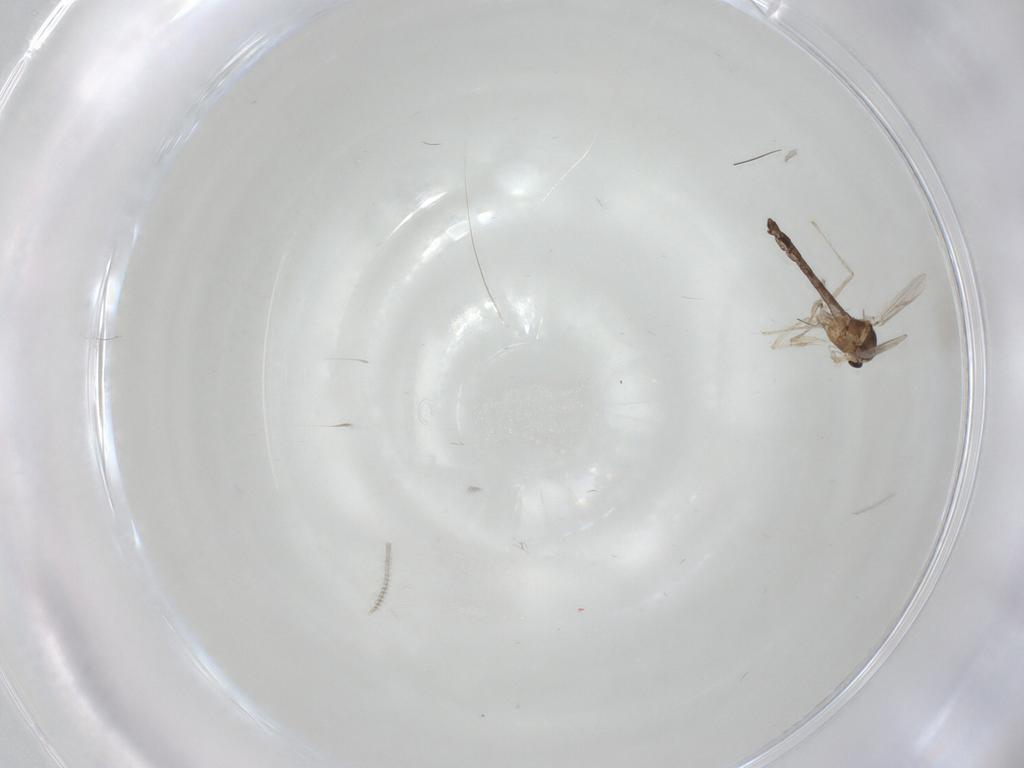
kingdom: Animalia
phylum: Arthropoda
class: Insecta
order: Diptera
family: Chironomidae
